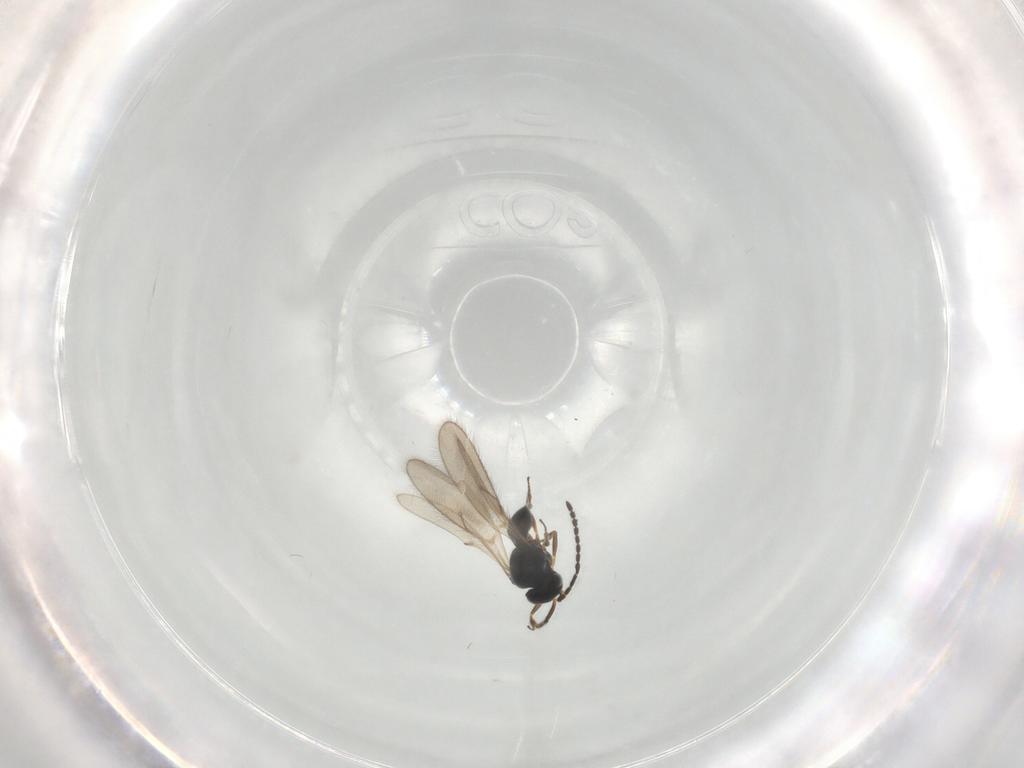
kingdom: Animalia
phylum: Arthropoda
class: Insecta
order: Hymenoptera
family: Scelionidae
